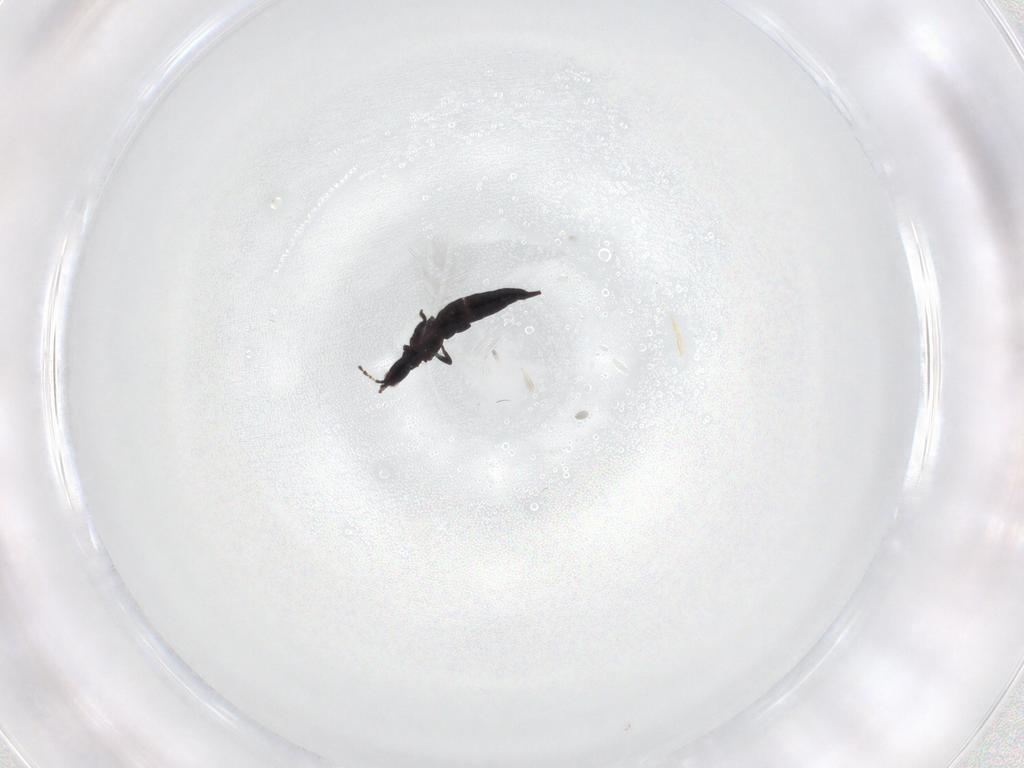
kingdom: Animalia
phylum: Arthropoda
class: Insecta
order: Thysanoptera
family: Phlaeothripidae
